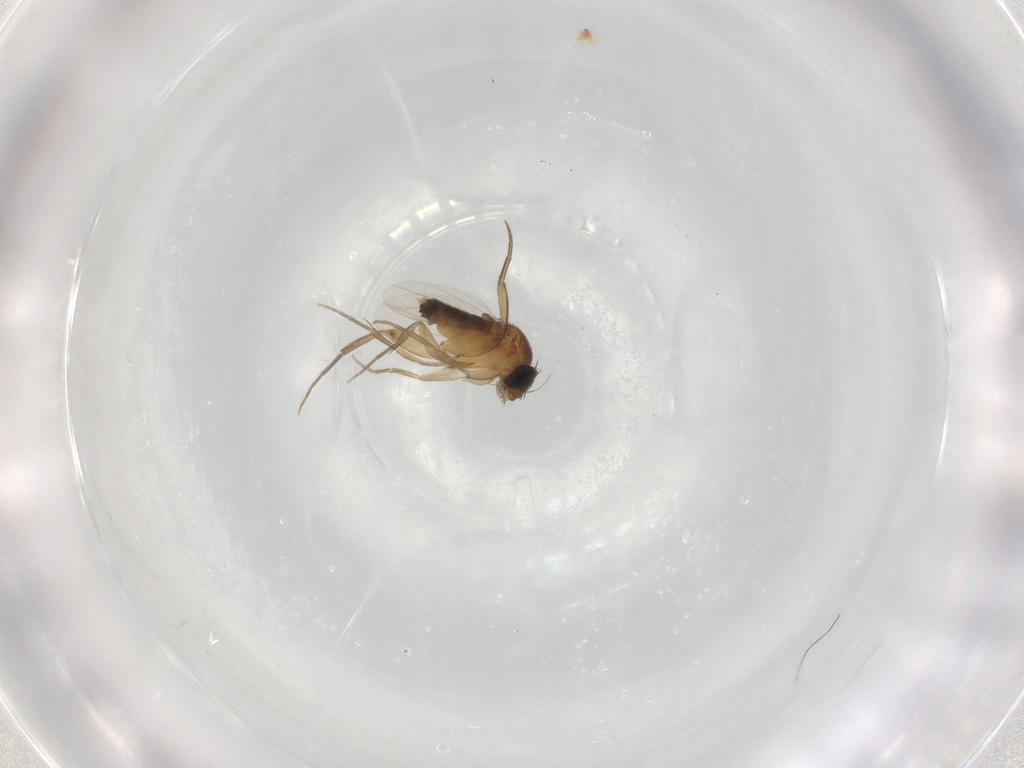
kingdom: Animalia
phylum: Arthropoda
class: Insecta
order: Diptera
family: Phoridae
